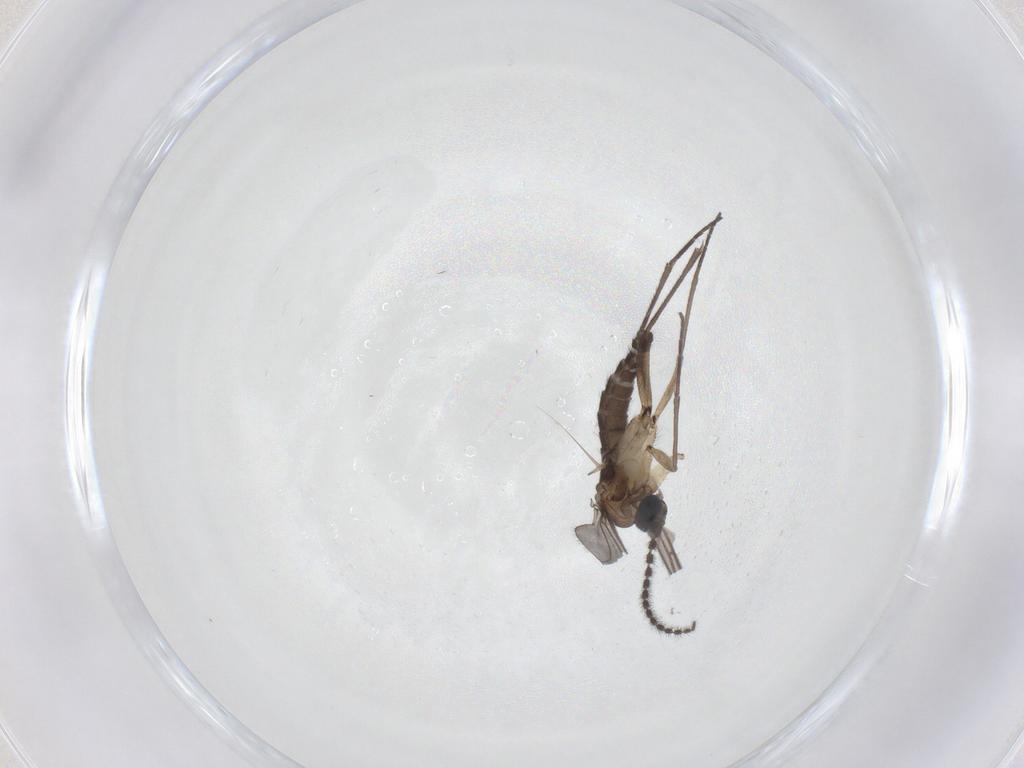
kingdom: Animalia
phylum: Arthropoda
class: Insecta
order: Diptera
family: Sciaridae
